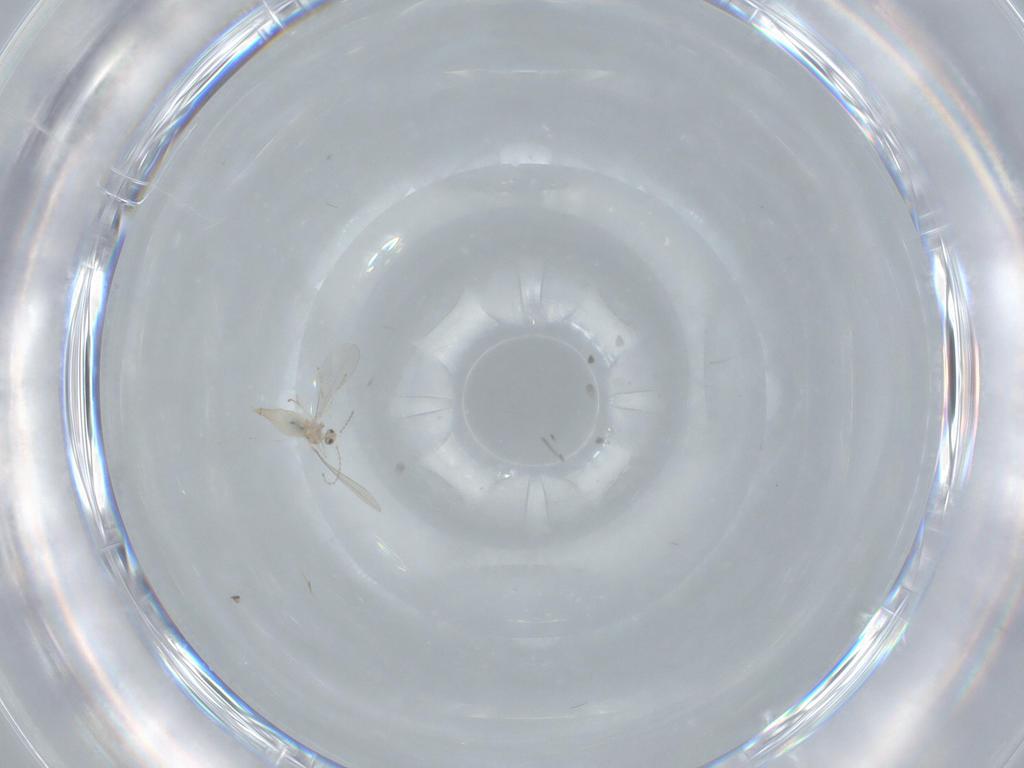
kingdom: Animalia
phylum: Arthropoda
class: Insecta
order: Diptera
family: Cecidomyiidae
